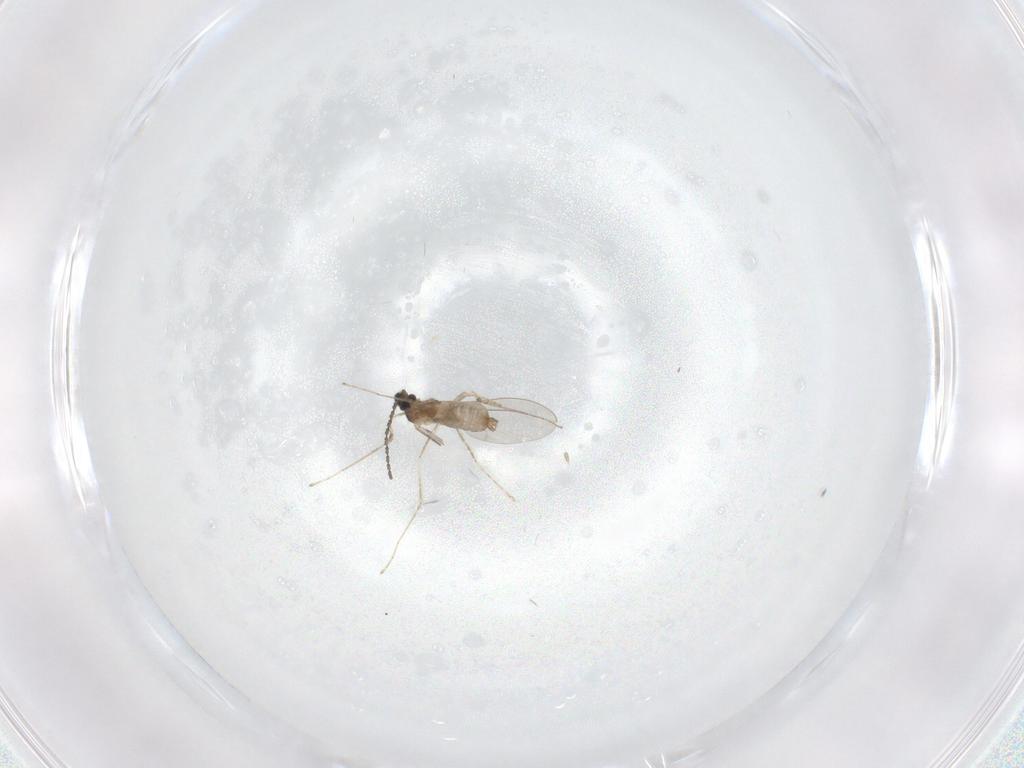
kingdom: Animalia
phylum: Arthropoda
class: Insecta
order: Diptera
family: Cecidomyiidae
